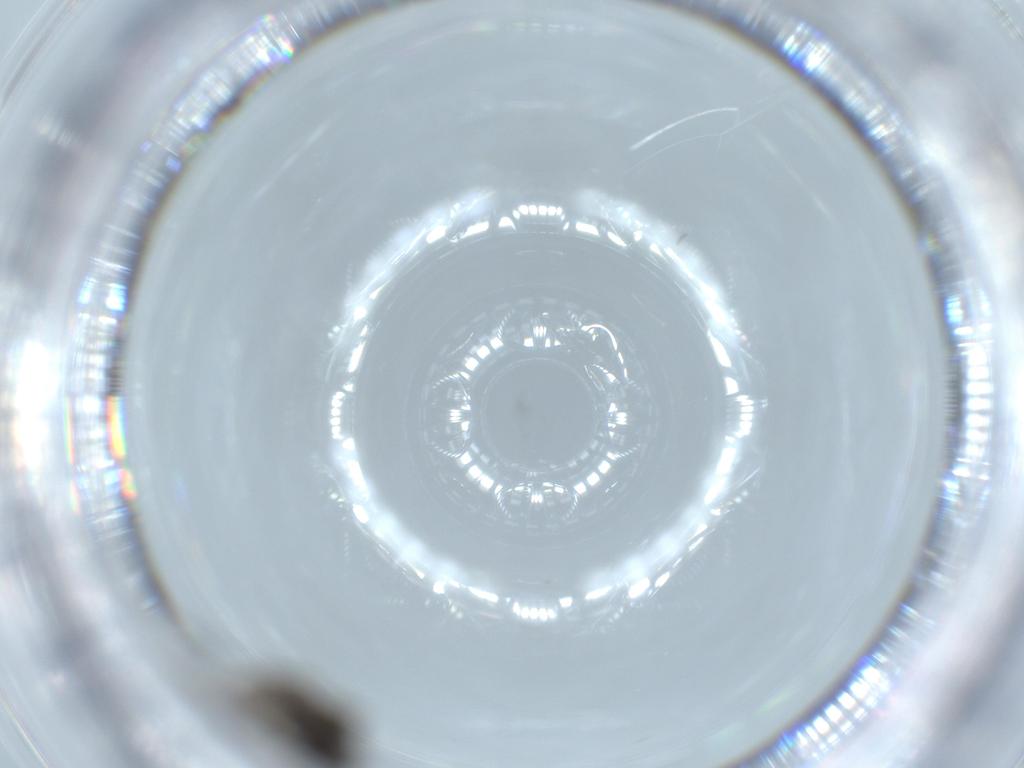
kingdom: Animalia
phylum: Arthropoda
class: Insecta
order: Diptera
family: Sciaridae
